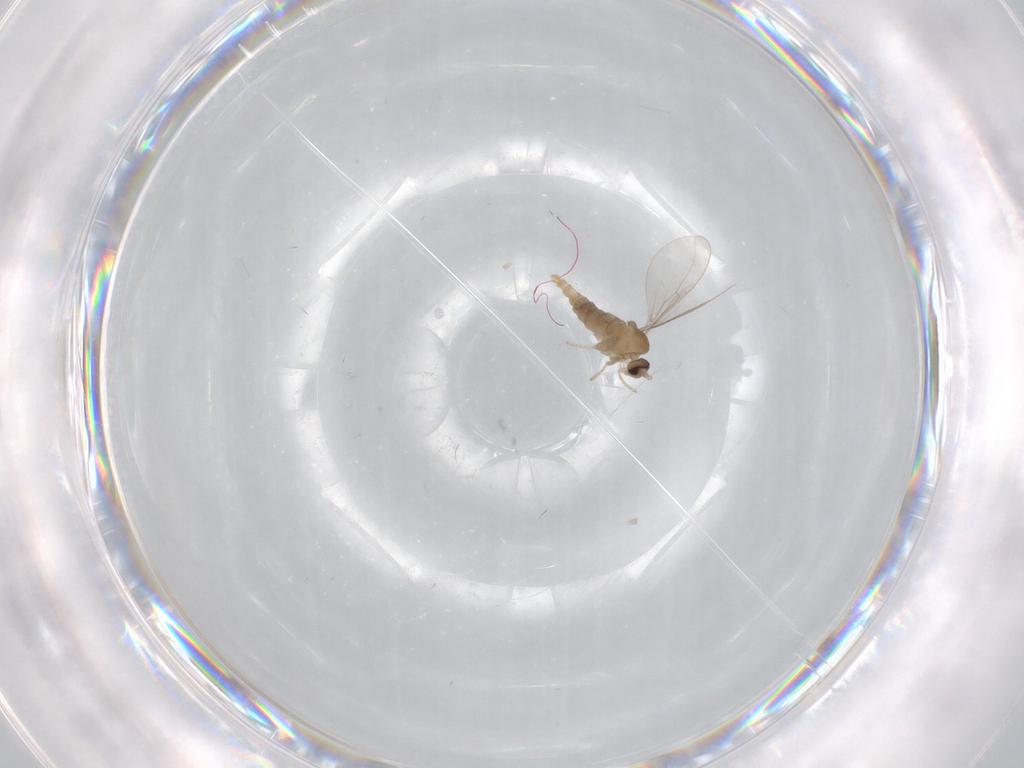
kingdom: Animalia
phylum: Arthropoda
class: Insecta
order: Diptera
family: Cecidomyiidae
